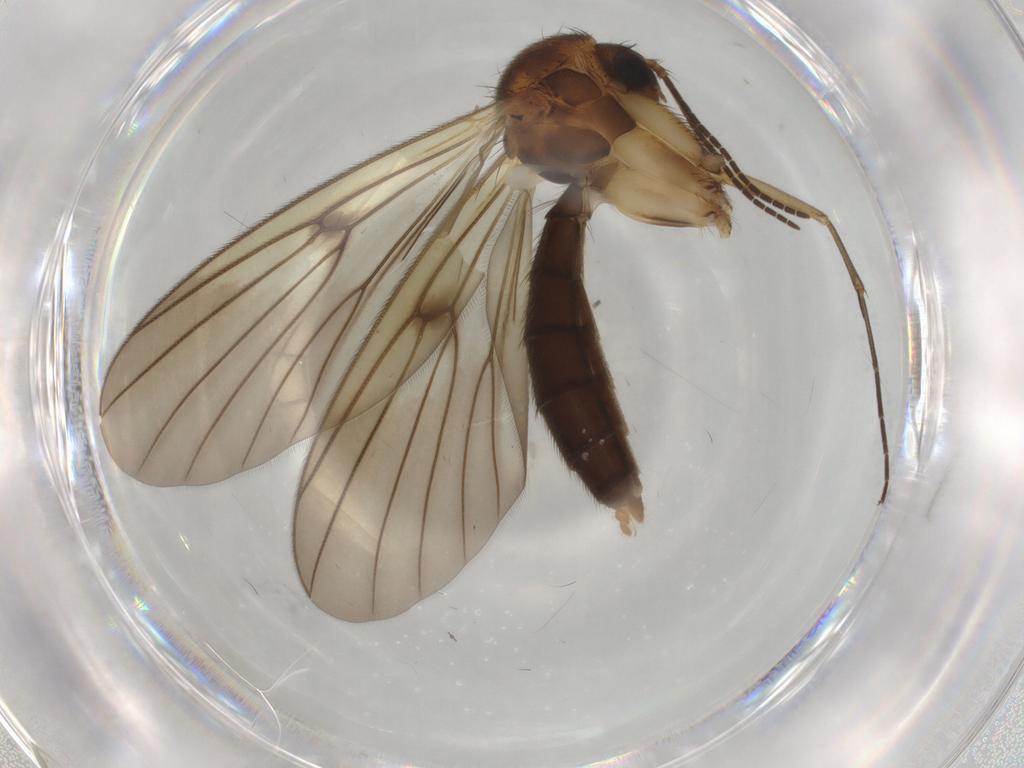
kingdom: Animalia
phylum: Arthropoda
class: Insecta
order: Diptera
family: Mycetophilidae
